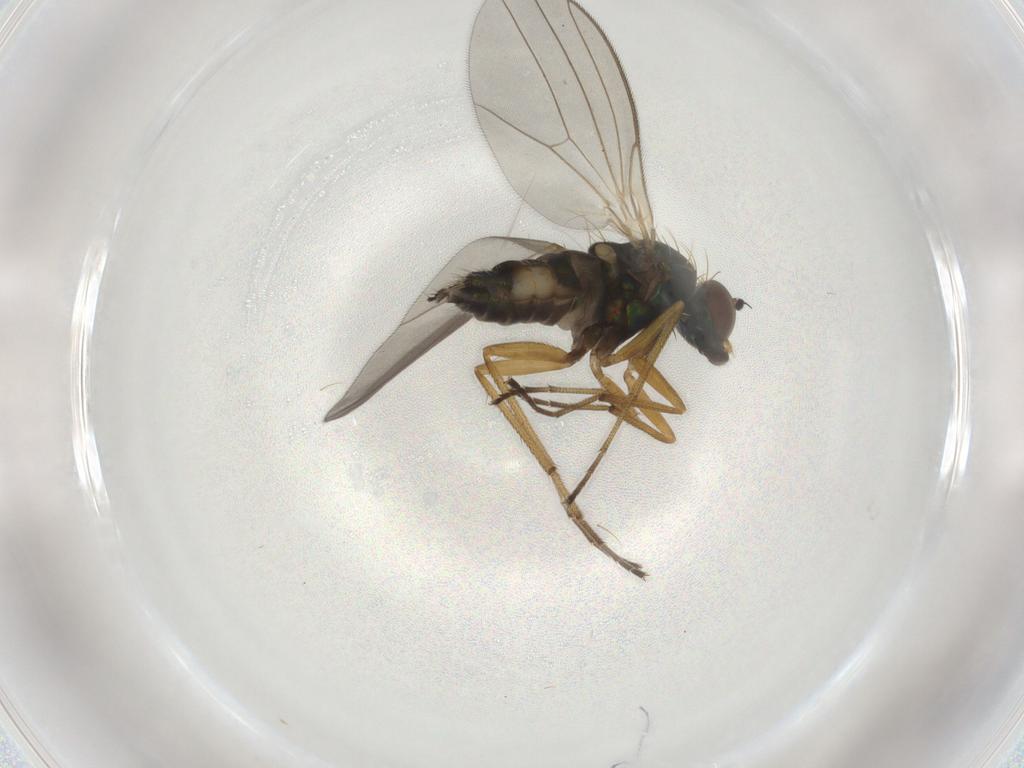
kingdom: Animalia
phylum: Arthropoda
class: Insecta
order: Diptera
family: Dolichopodidae
